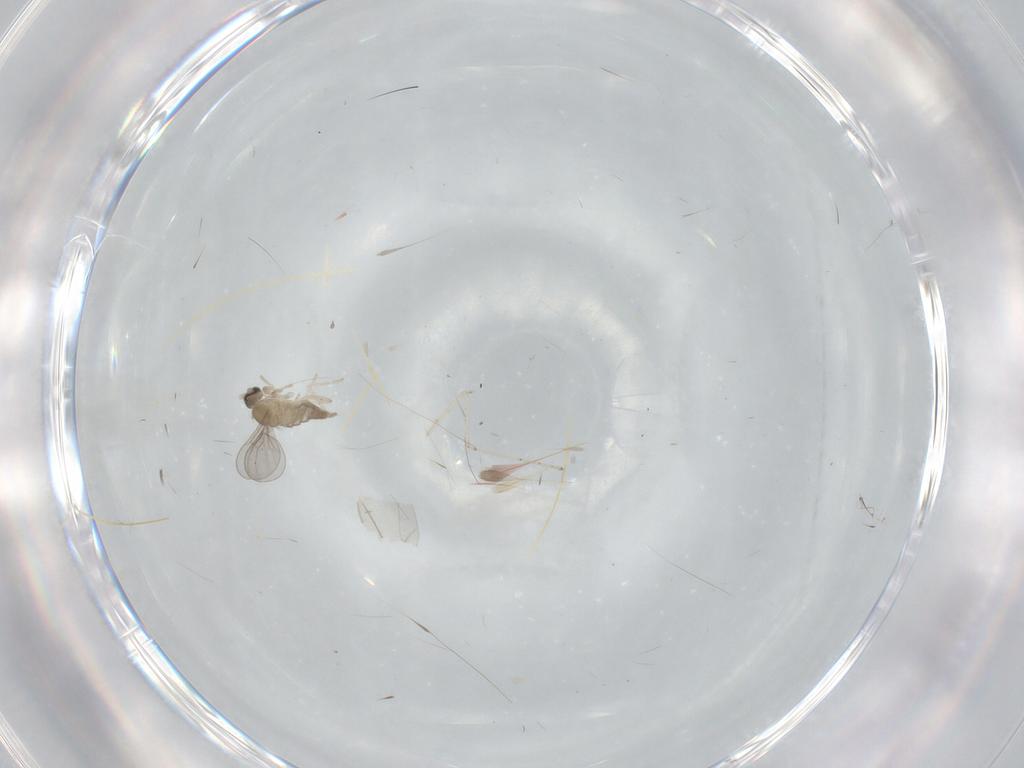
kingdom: Animalia
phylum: Arthropoda
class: Insecta
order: Diptera
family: Cecidomyiidae
